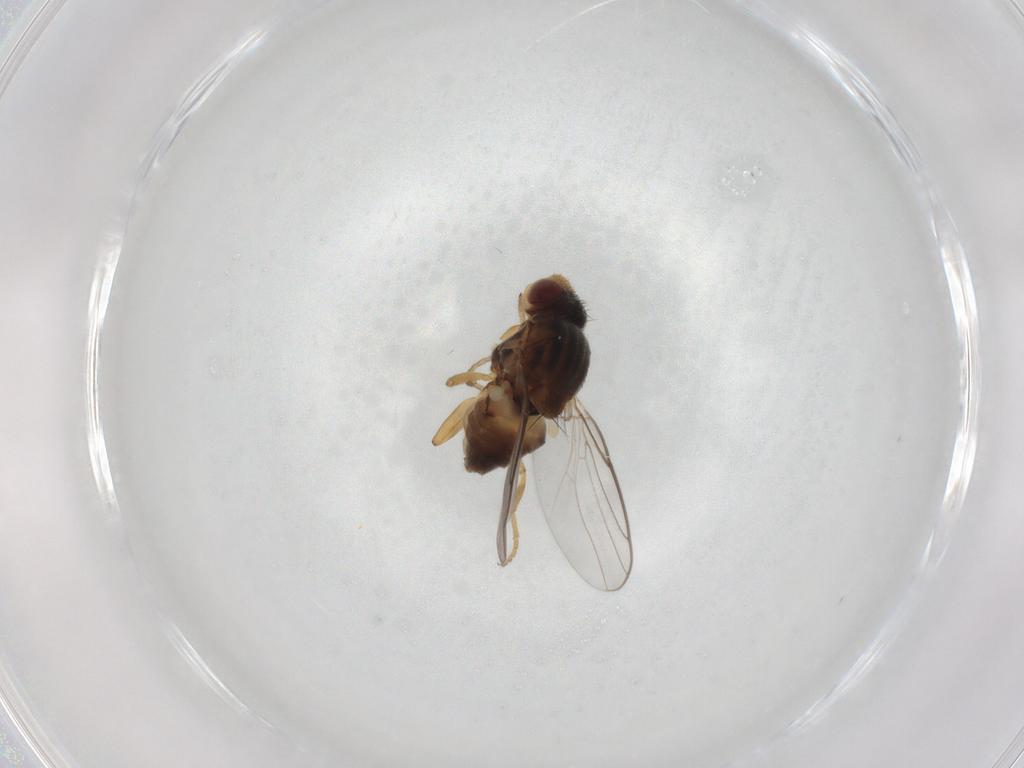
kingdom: Animalia
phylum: Arthropoda
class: Insecta
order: Diptera
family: Chloropidae
